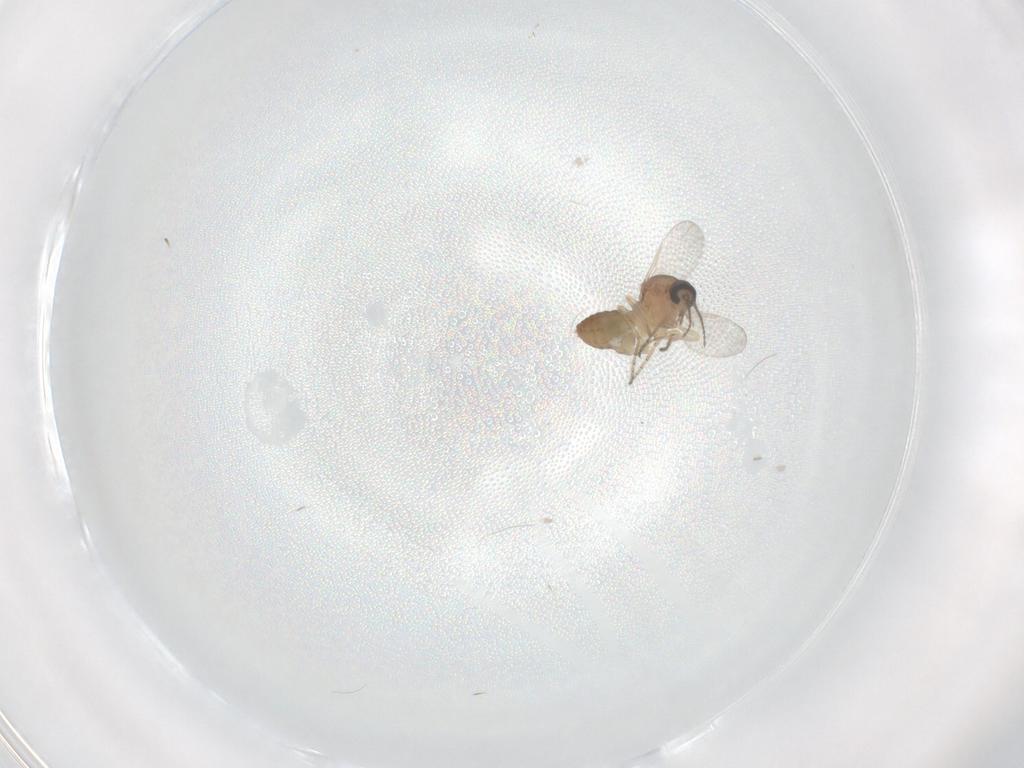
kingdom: Animalia
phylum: Arthropoda
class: Insecta
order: Diptera
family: Ceratopogonidae
